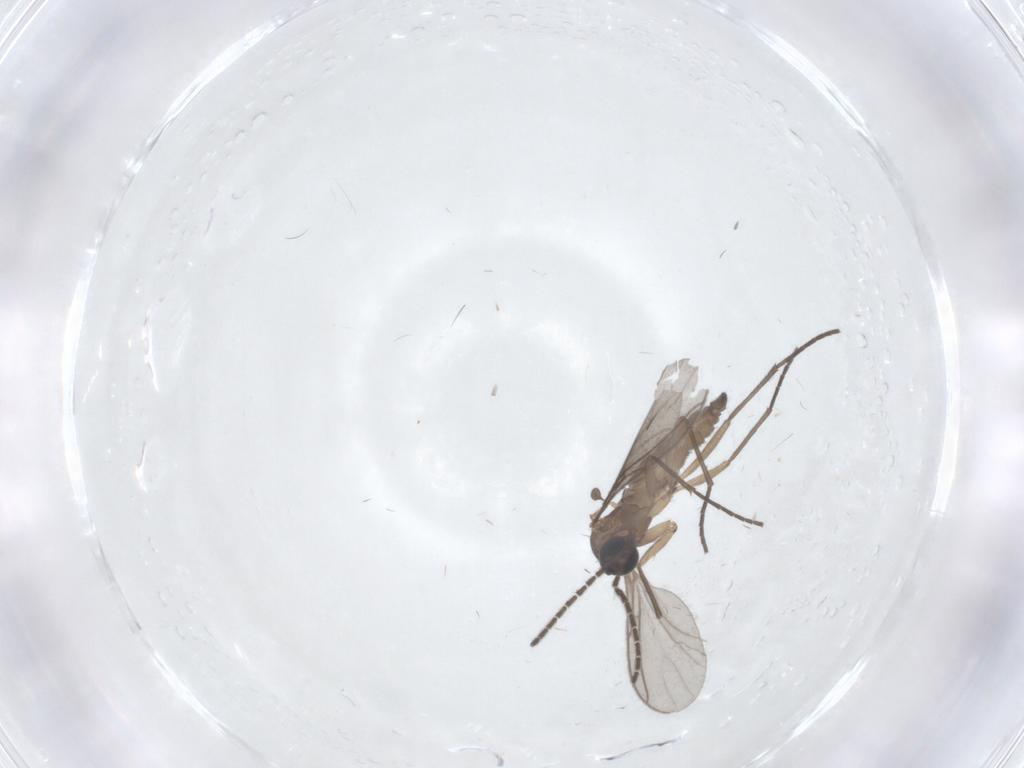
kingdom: Animalia
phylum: Arthropoda
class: Insecta
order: Diptera
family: Sciaridae
